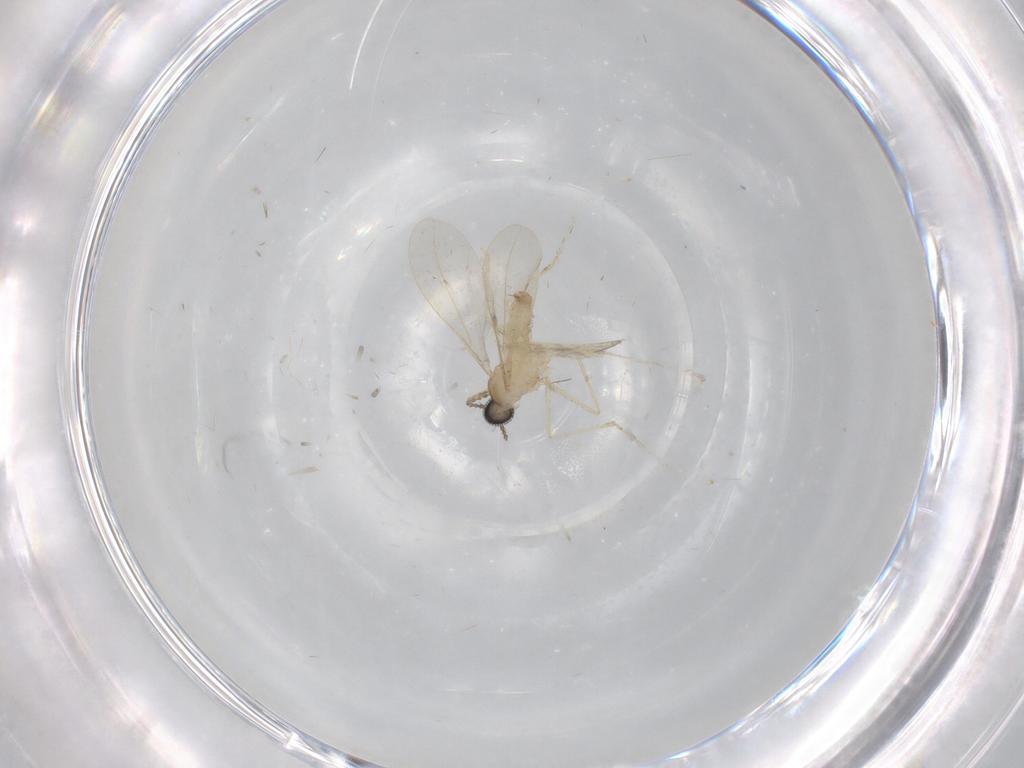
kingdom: Animalia
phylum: Arthropoda
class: Insecta
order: Diptera
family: Cecidomyiidae
